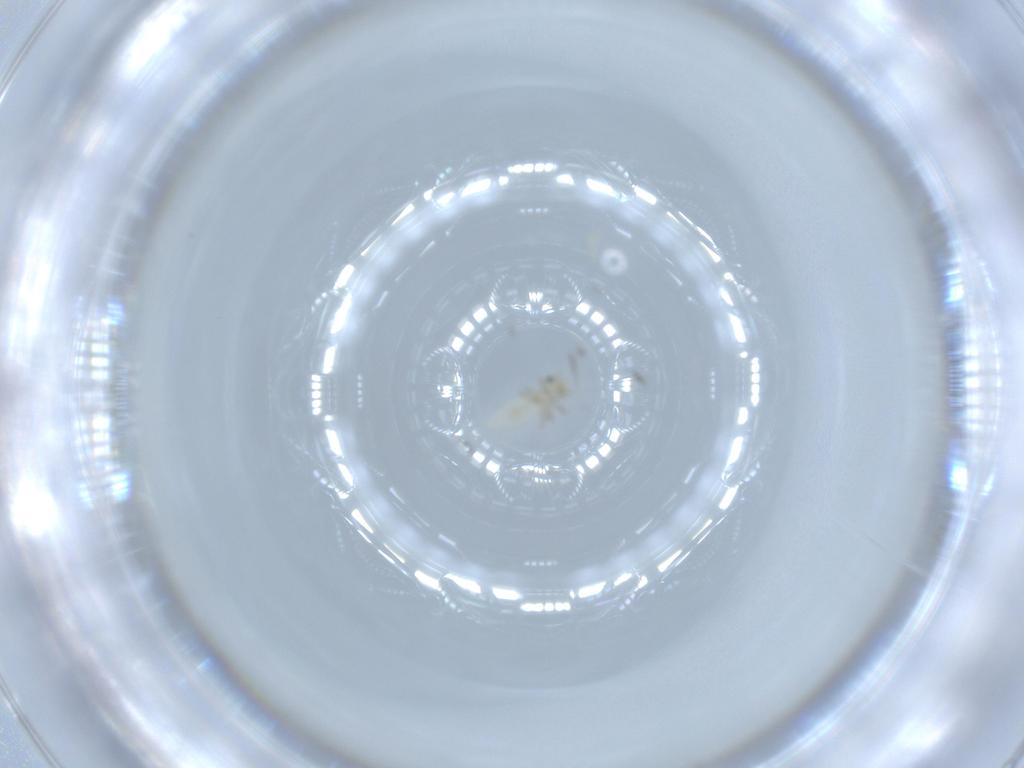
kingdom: Animalia
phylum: Arthropoda
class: Insecta
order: Psocodea
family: Caeciliusidae
